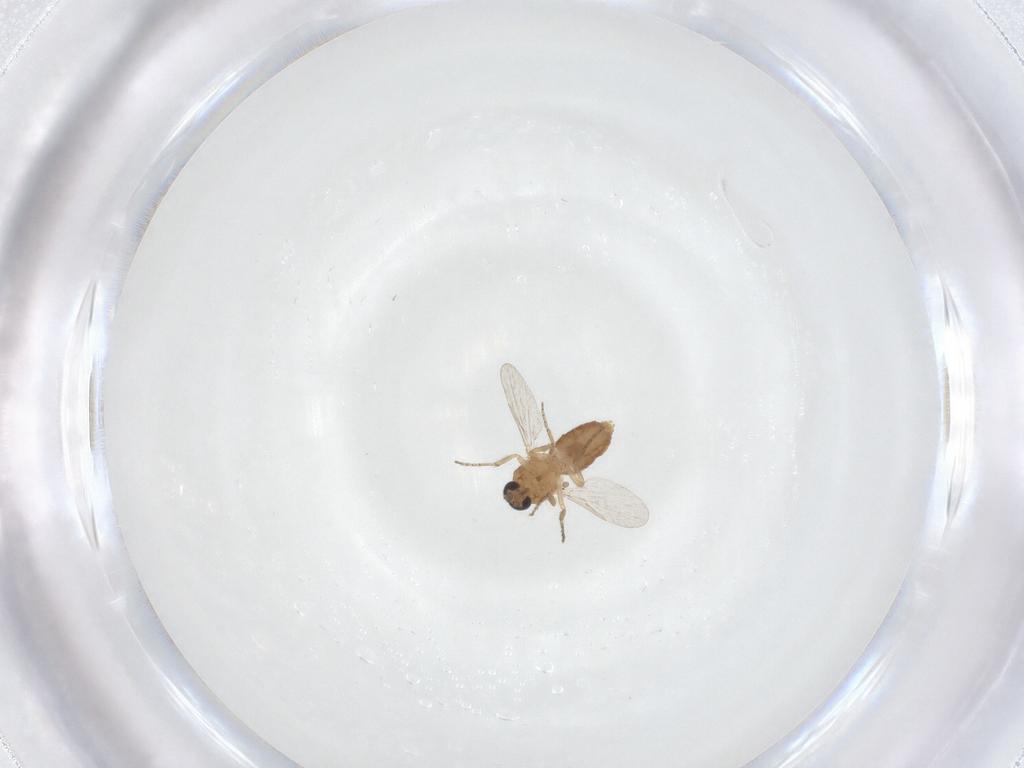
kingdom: Animalia
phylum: Arthropoda
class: Insecta
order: Diptera
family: Ceratopogonidae
